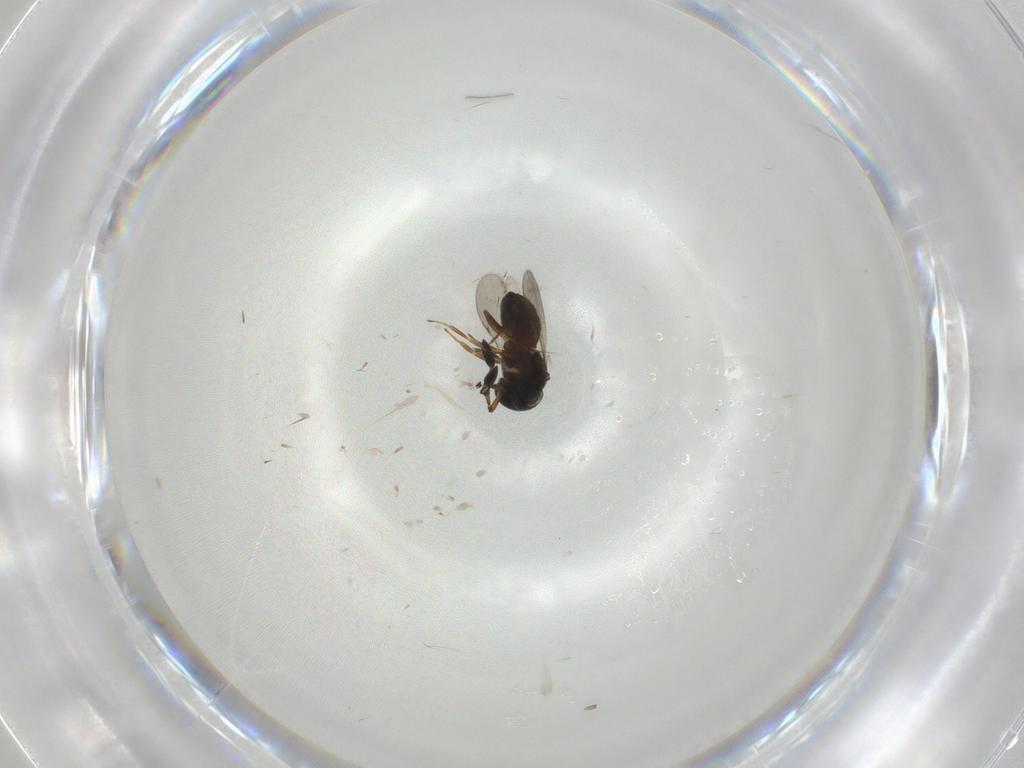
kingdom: Animalia
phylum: Arthropoda
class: Insecta
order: Hymenoptera
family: Scelionidae
